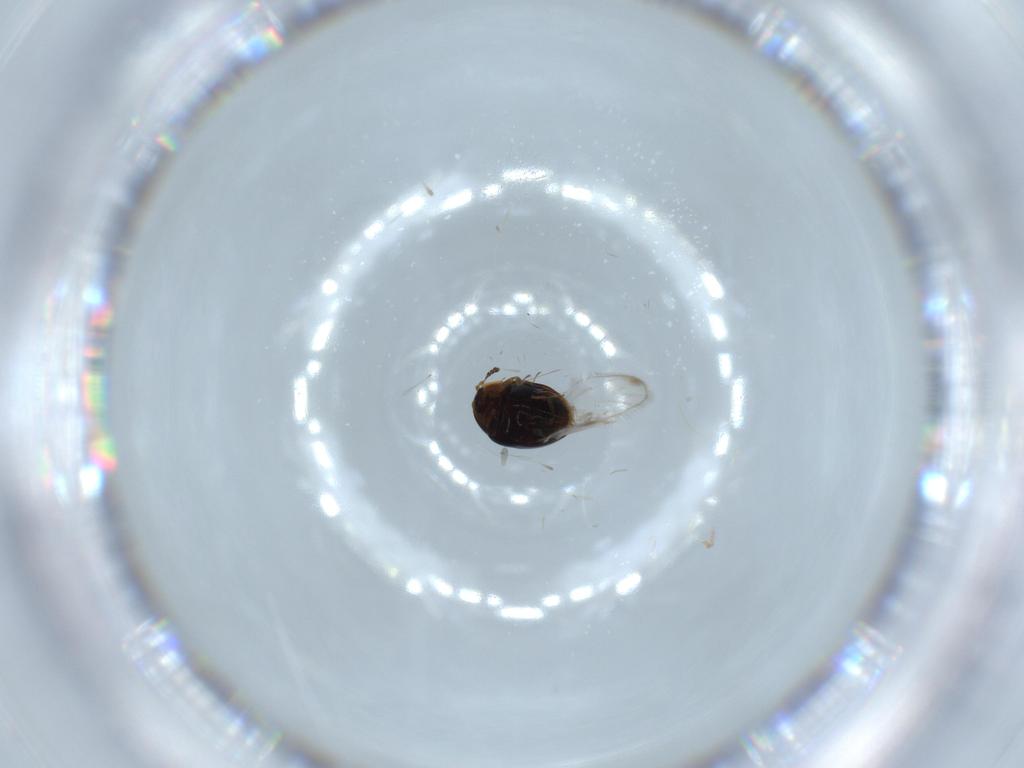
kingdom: Animalia
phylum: Arthropoda
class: Insecta
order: Coleoptera
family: Corylophidae
